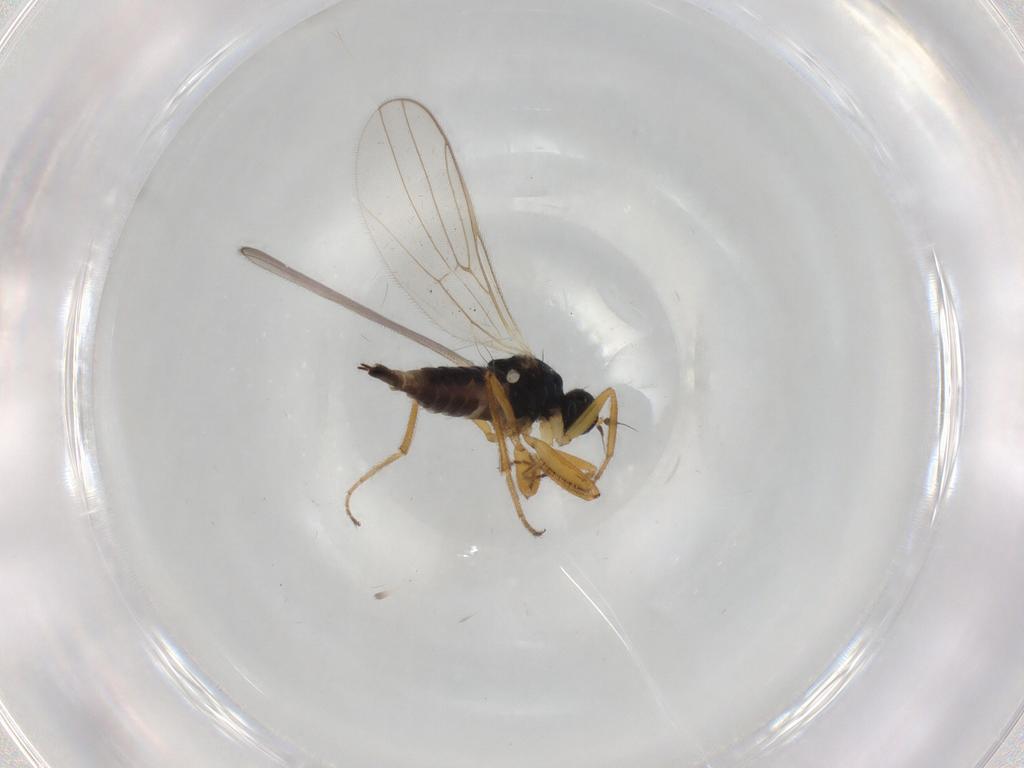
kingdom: Animalia
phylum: Arthropoda
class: Insecta
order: Diptera
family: Hybotidae
